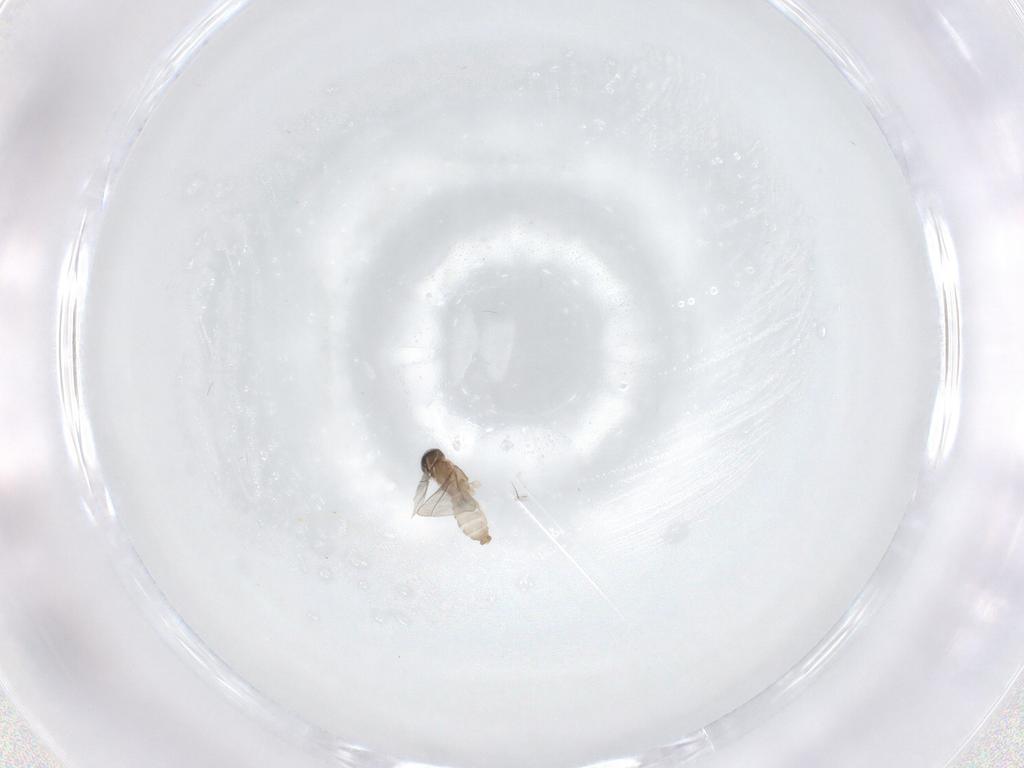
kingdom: Animalia
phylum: Arthropoda
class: Insecta
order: Diptera
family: Cecidomyiidae
